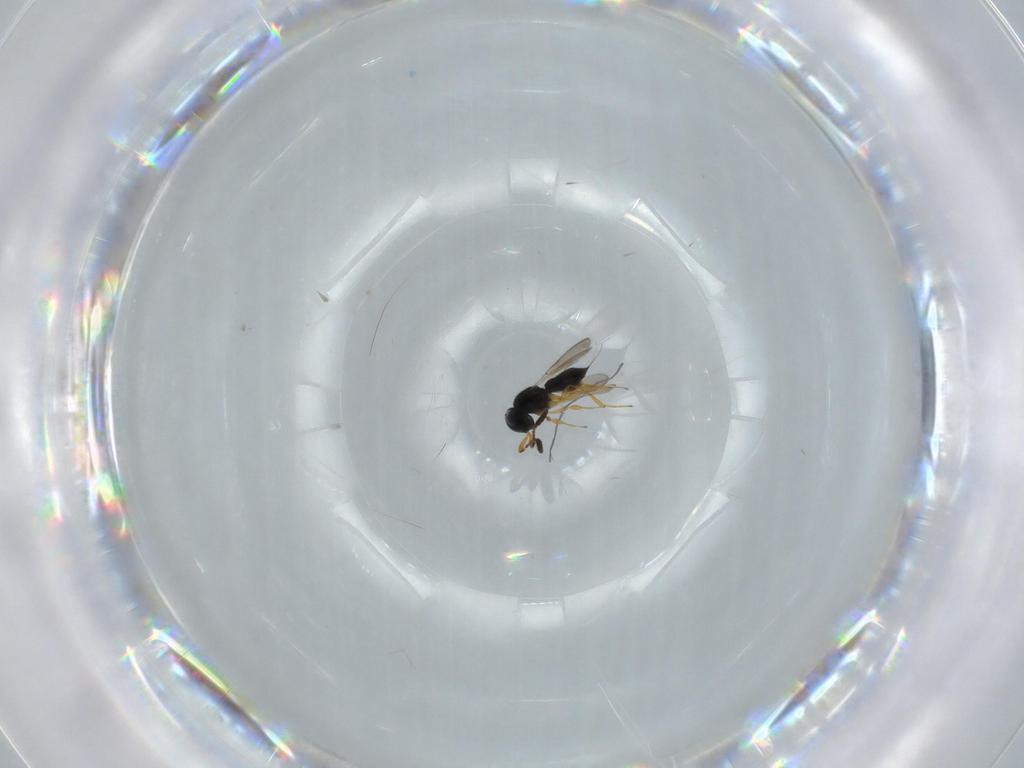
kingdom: Animalia
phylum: Arthropoda
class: Insecta
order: Hymenoptera
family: Scelionidae
